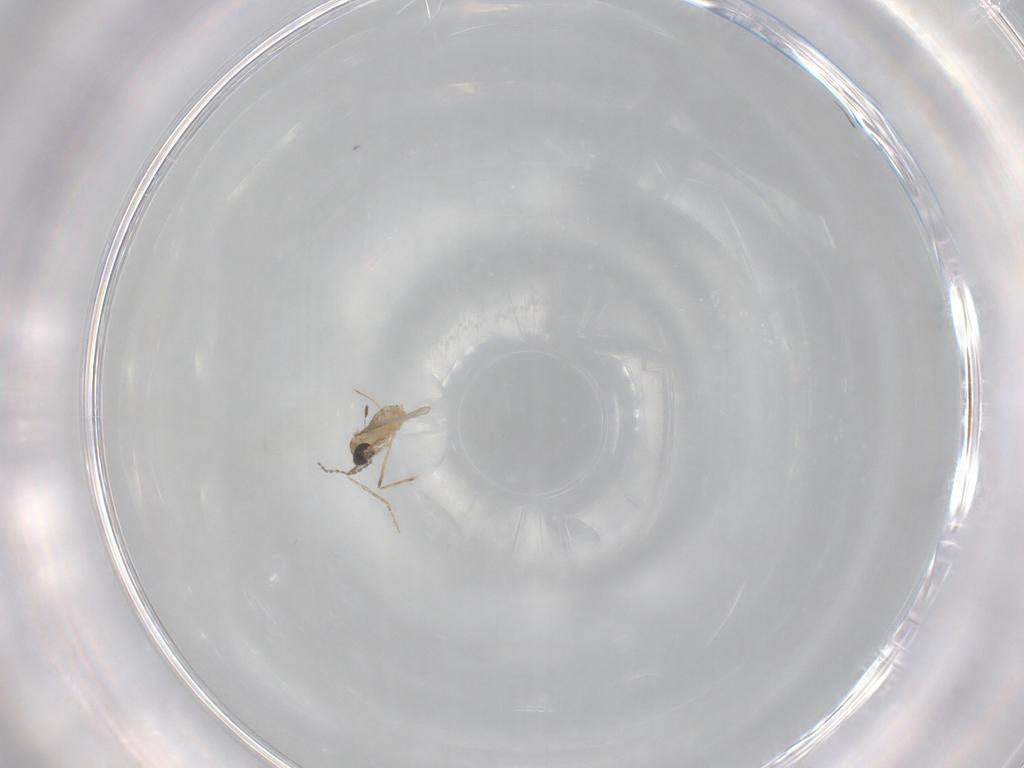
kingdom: Animalia
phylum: Arthropoda
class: Insecta
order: Diptera
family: Cecidomyiidae
